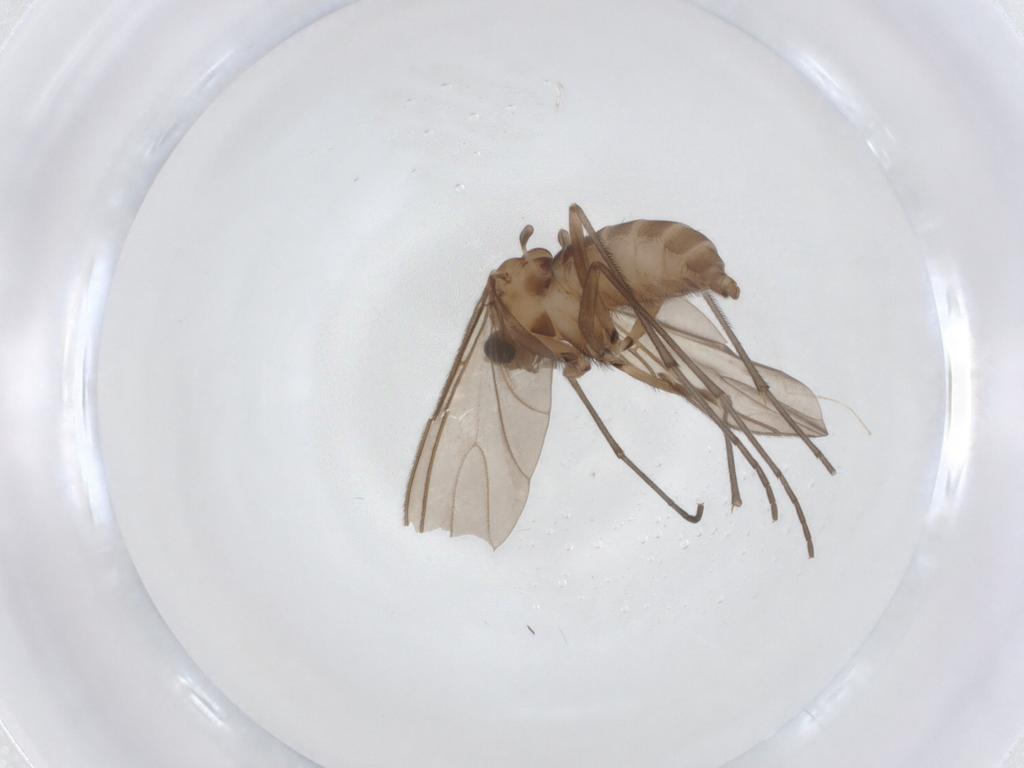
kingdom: Animalia
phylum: Arthropoda
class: Insecta
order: Diptera
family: Sciaridae
